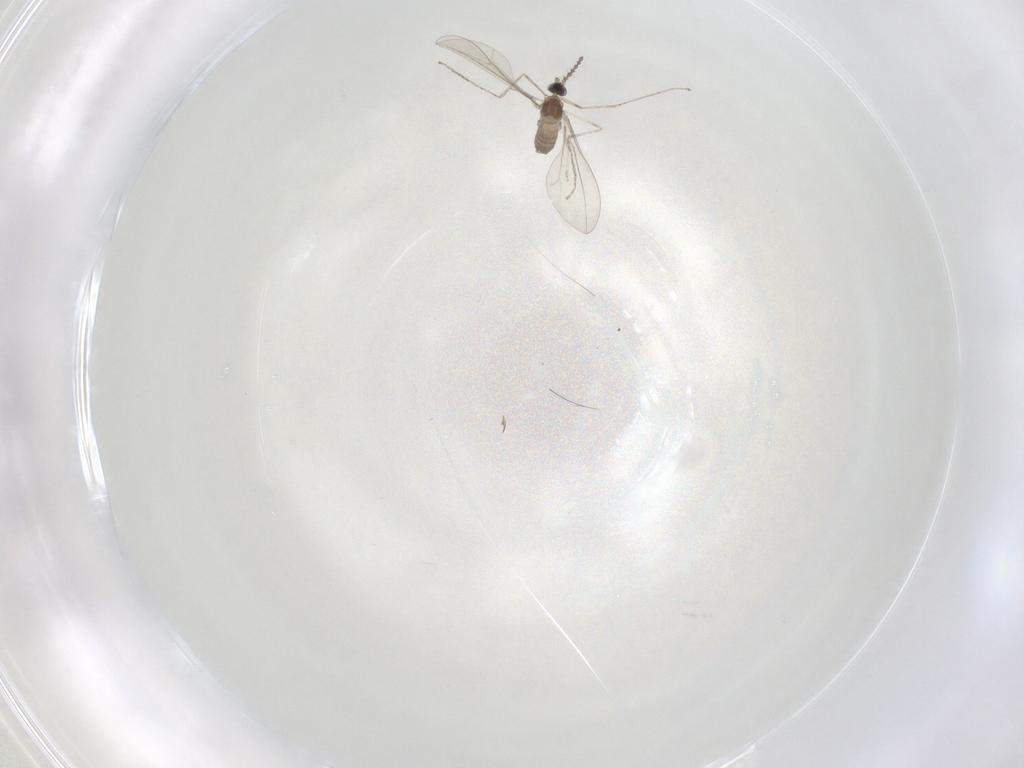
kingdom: Animalia
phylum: Arthropoda
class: Insecta
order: Diptera
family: Cecidomyiidae
